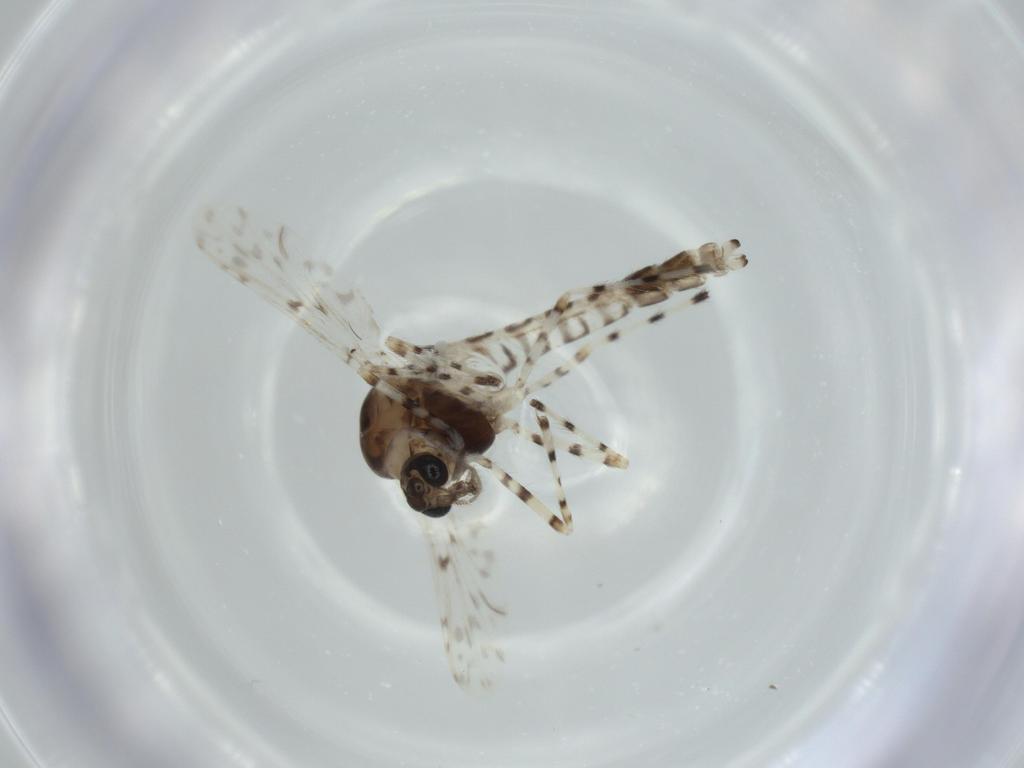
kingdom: Animalia
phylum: Arthropoda
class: Insecta
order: Diptera
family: Chironomidae
